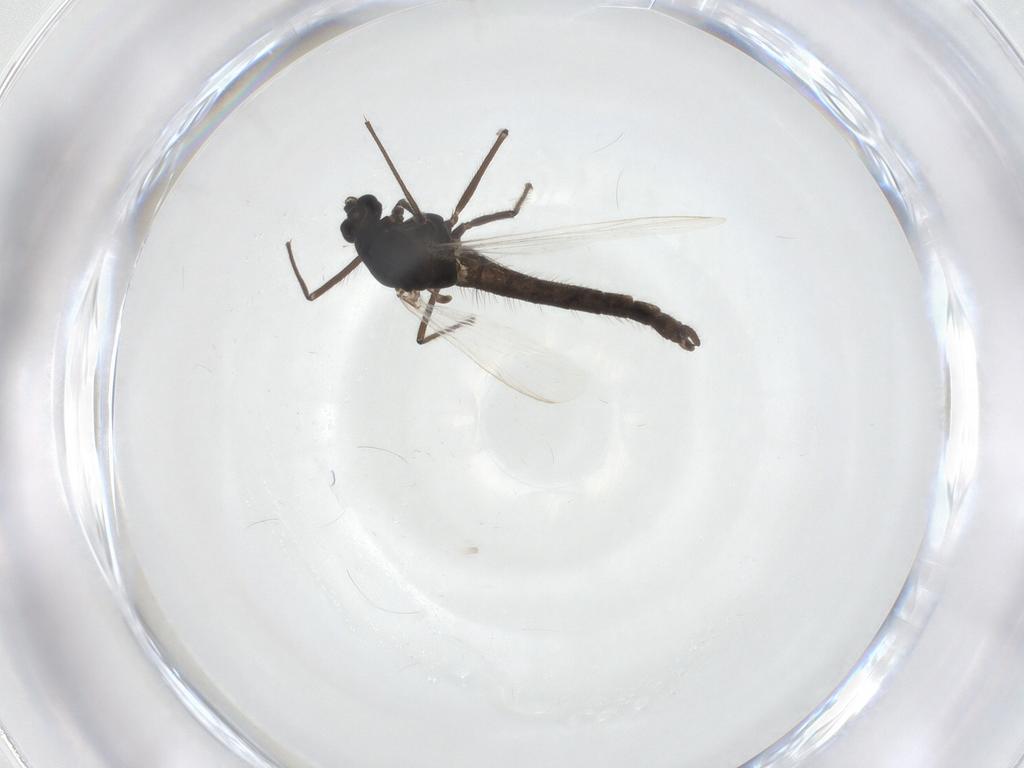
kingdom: Animalia
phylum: Arthropoda
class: Insecta
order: Diptera
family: Chironomidae
